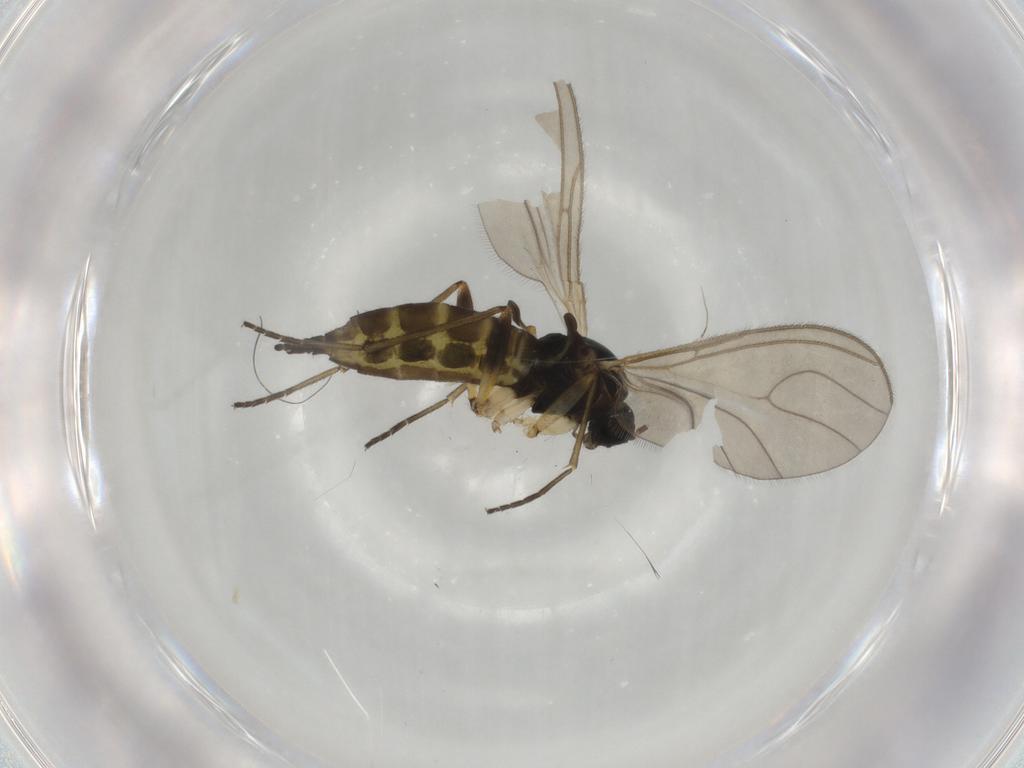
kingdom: Animalia
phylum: Arthropoda
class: Insecta
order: Diptera
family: Sciaridae
